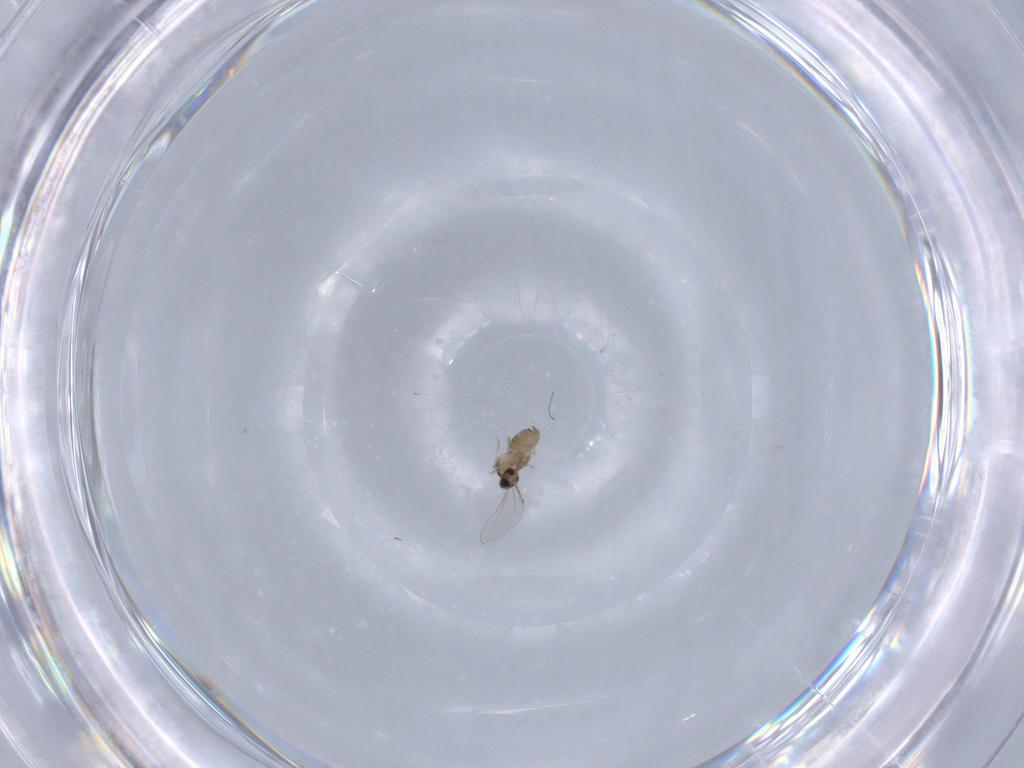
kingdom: Animalia
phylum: Arthropoda
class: Insecta
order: Diptera
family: Cecidomyiidae
